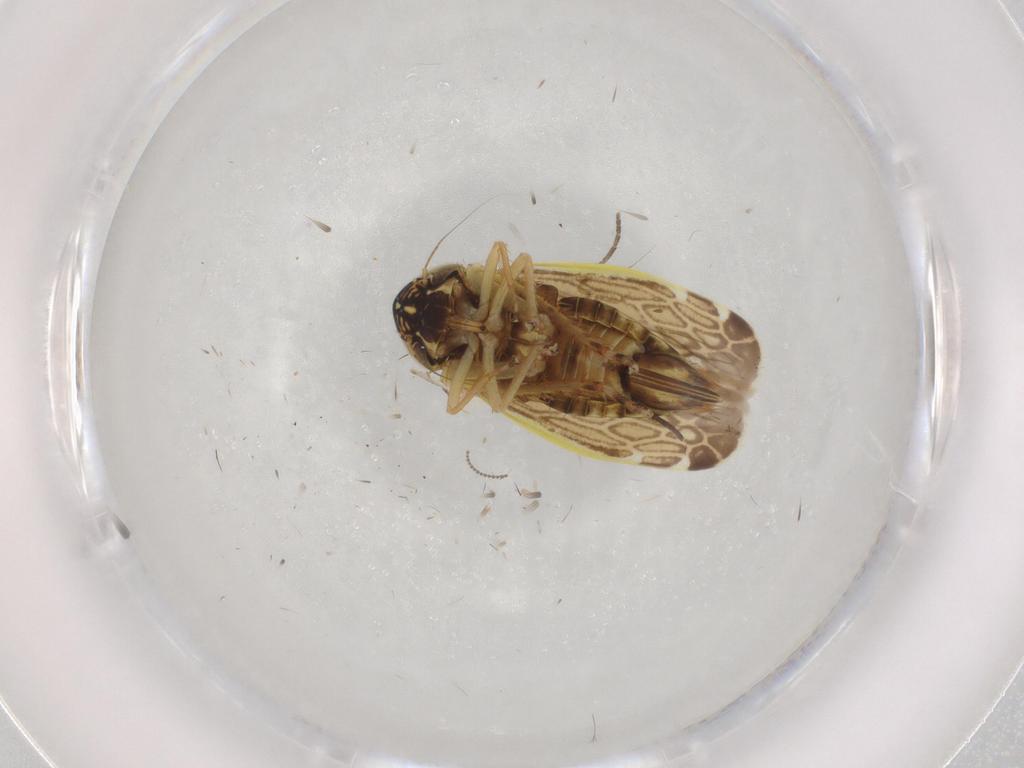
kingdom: Animalia
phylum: Arthropoda
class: Insecta
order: Hemiptera
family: Cicadellidae
